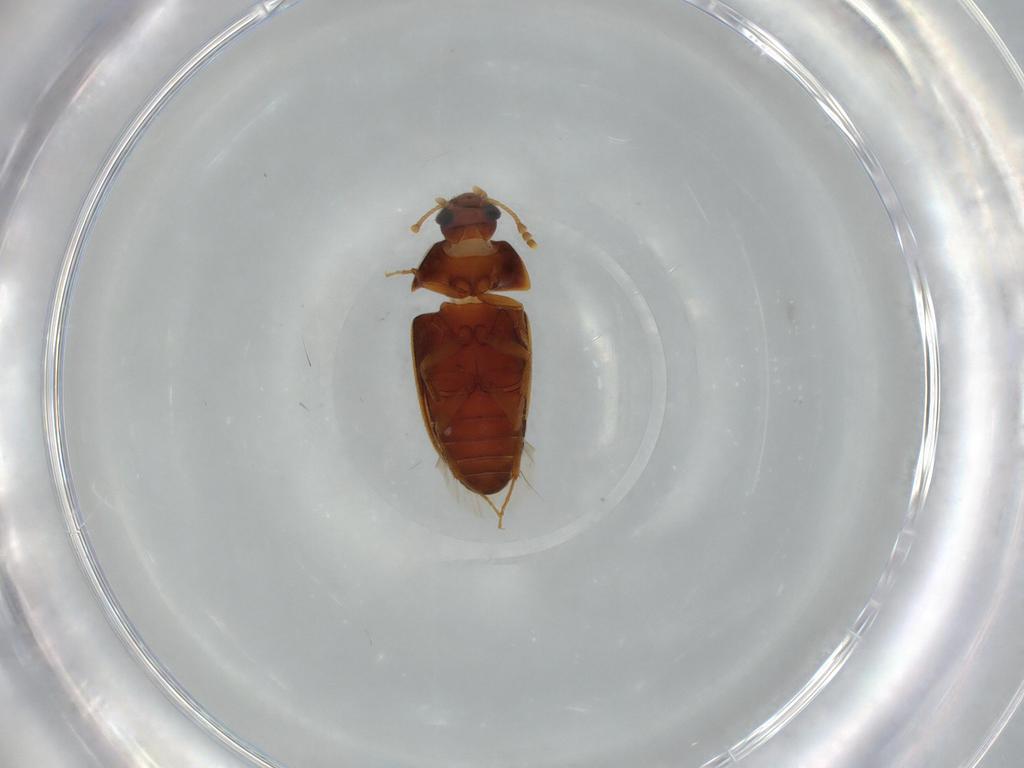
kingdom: Animalia
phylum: Arthropoda
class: Insecta
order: Coleoptera
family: Mycetophagidae
